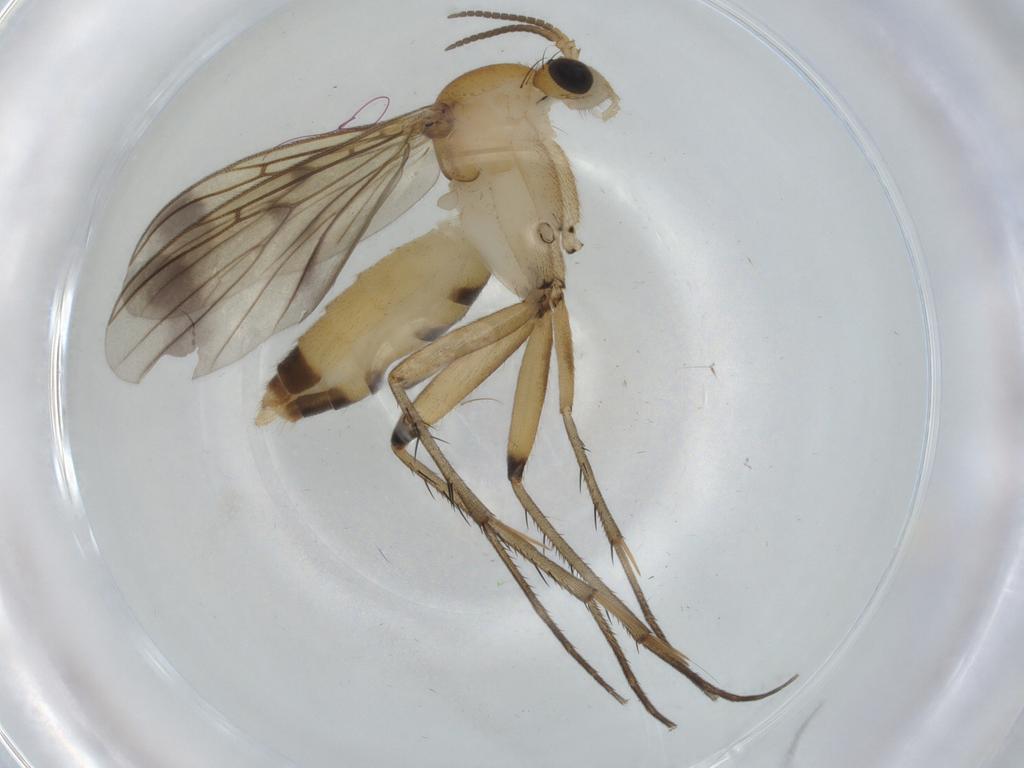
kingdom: Animalia
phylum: Arthropoda
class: Insecta
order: Diptera
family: Mycetophilidae
